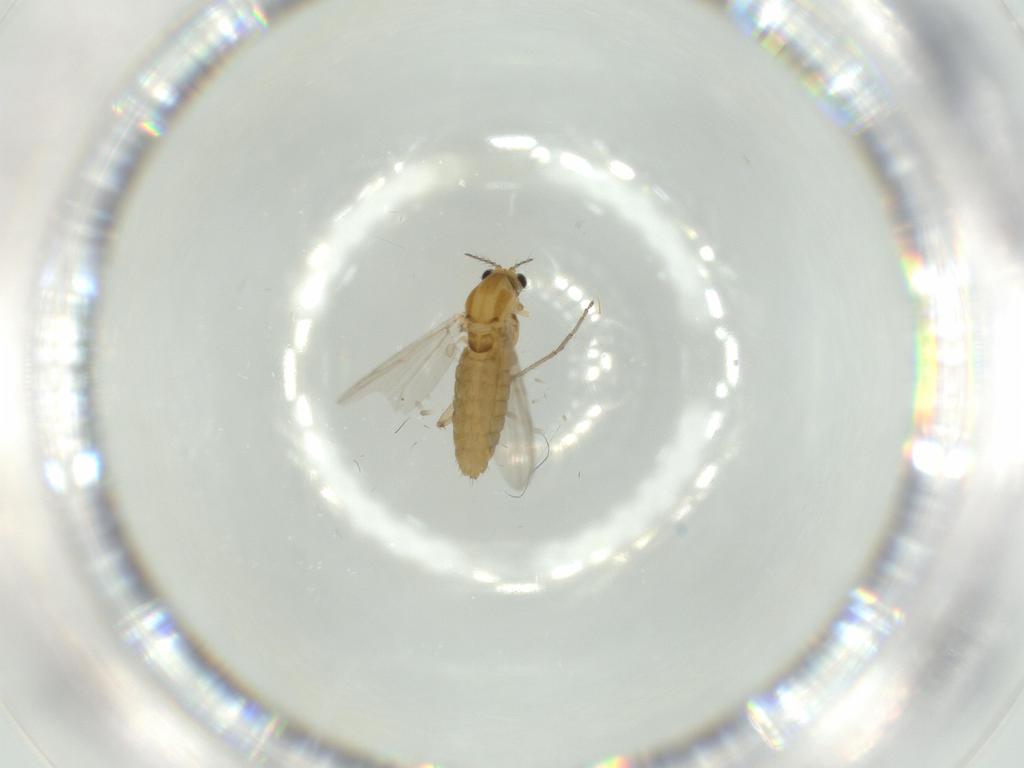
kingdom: Animalia
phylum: Arthropoda
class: Insecta
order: Diptera
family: Chironomidae
